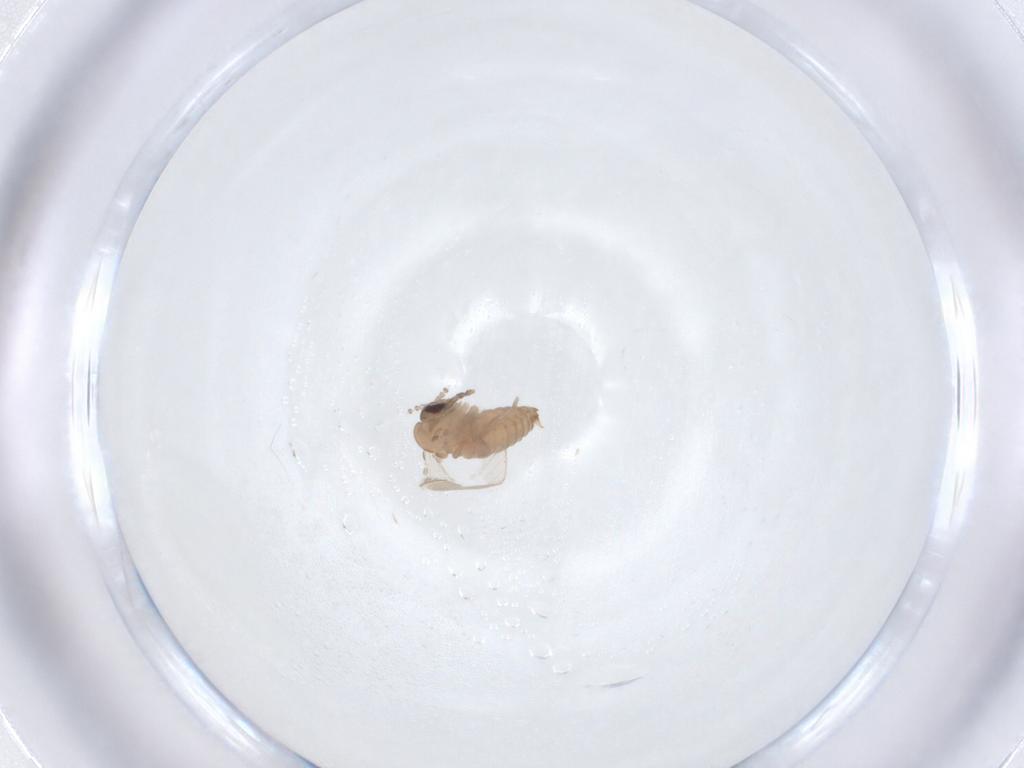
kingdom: Animalia
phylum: Arthropoda
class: Insecta
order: Diptera
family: Psychodidae
